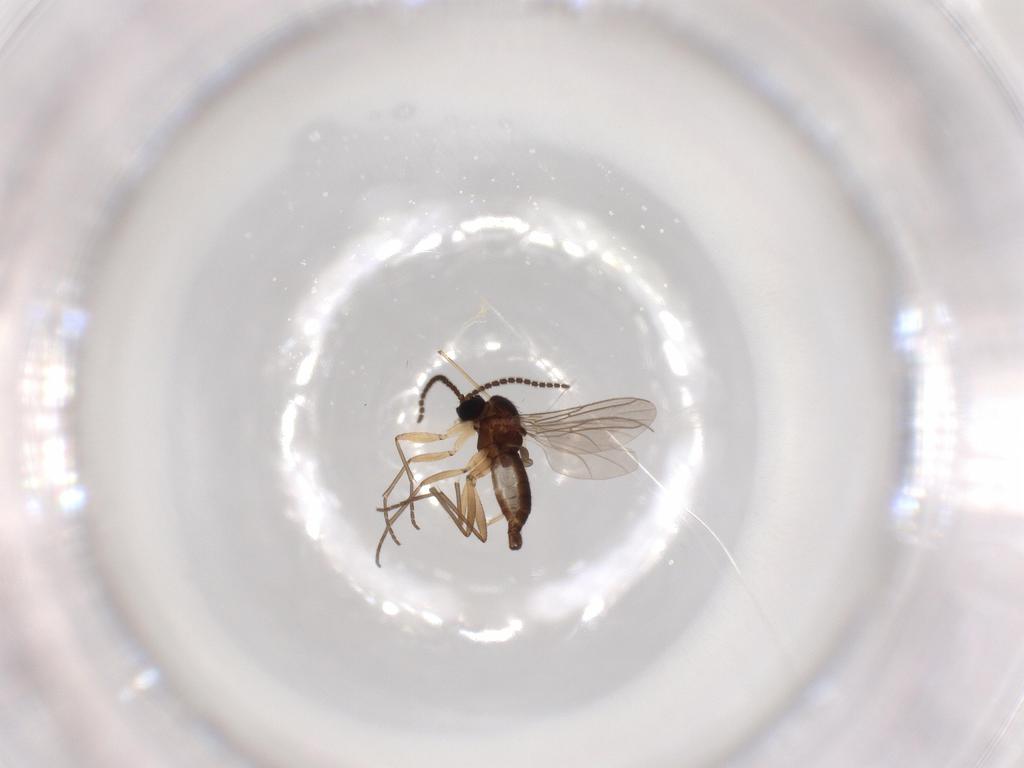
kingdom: Animalia
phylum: Arthropoda
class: Insecta
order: Diptera
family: Sciaridae
